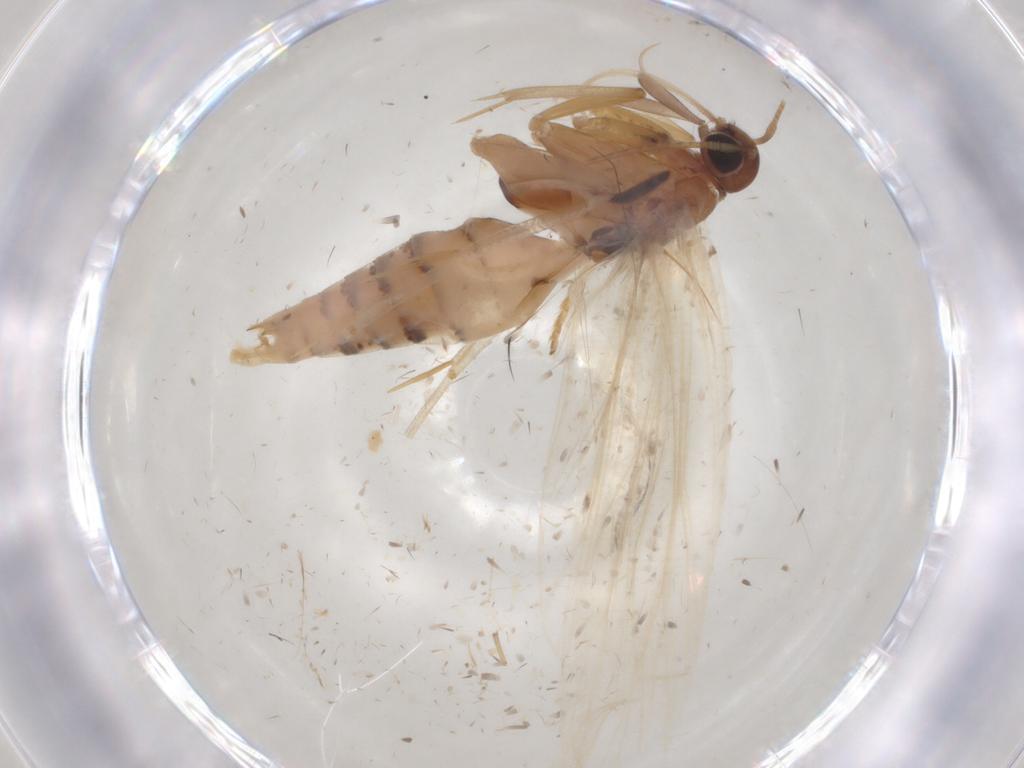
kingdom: Animalia
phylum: Arthropoda
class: Insecta
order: Lepidoptera
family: Gelechiidae
